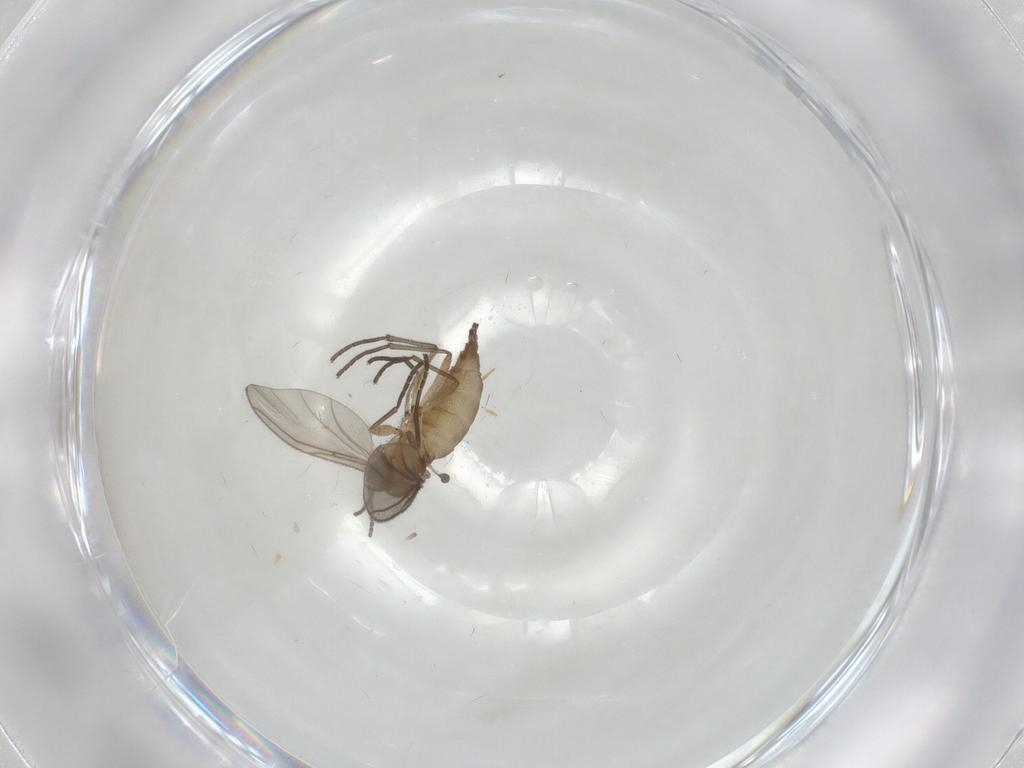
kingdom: Animalia
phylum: Arthropoda
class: Insecta
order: Diptera
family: Sciaridae
